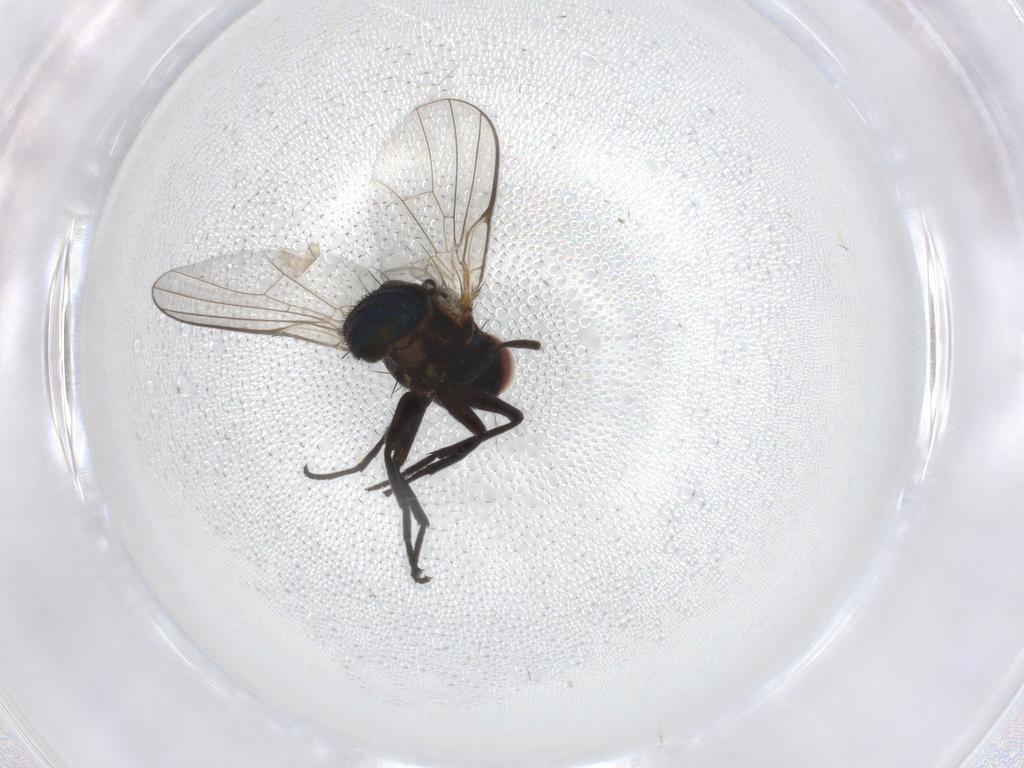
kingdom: Animalia
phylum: Arthropoda
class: Insecta
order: Diptera
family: Agromyzidae
